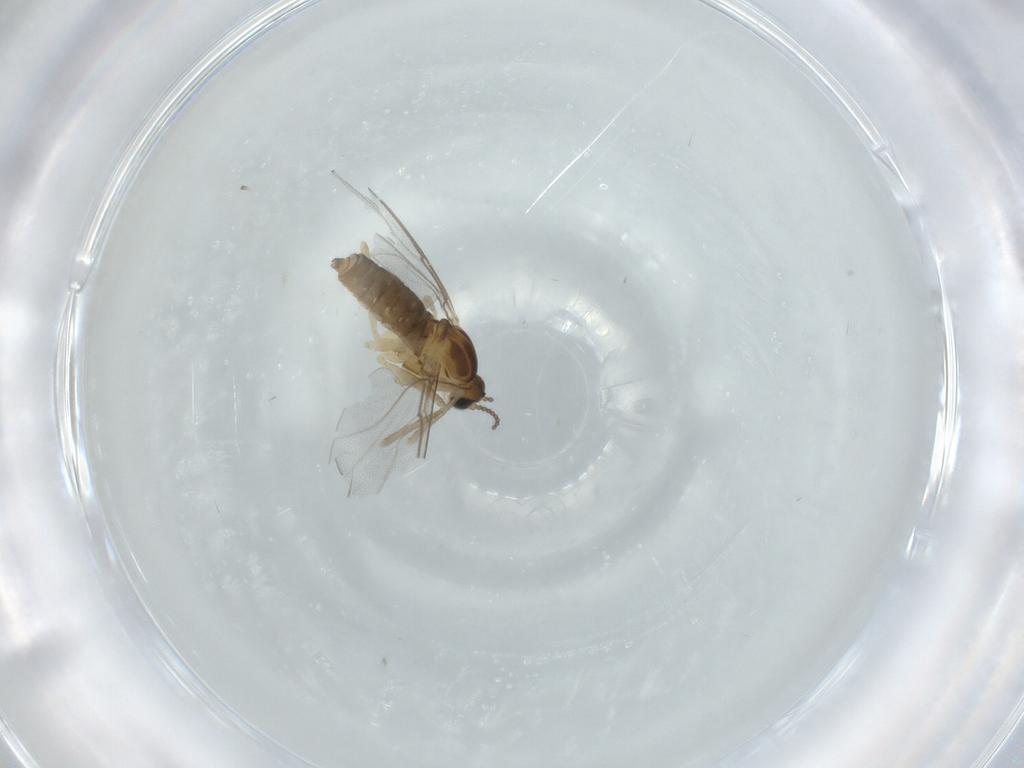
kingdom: Animalia
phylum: Arthropoda
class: Insecta
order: Diptera
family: Cecidomyiidae
